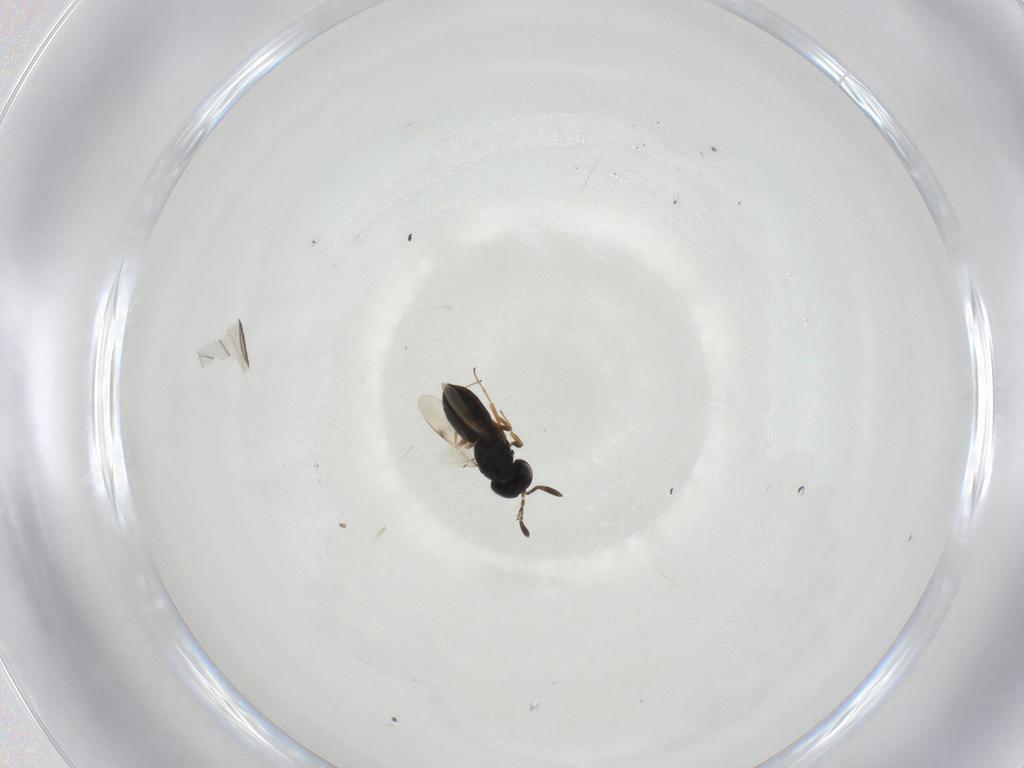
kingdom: Animalia
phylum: Arthropoda
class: Insecta
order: Hymenoptera
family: Scelionidae
